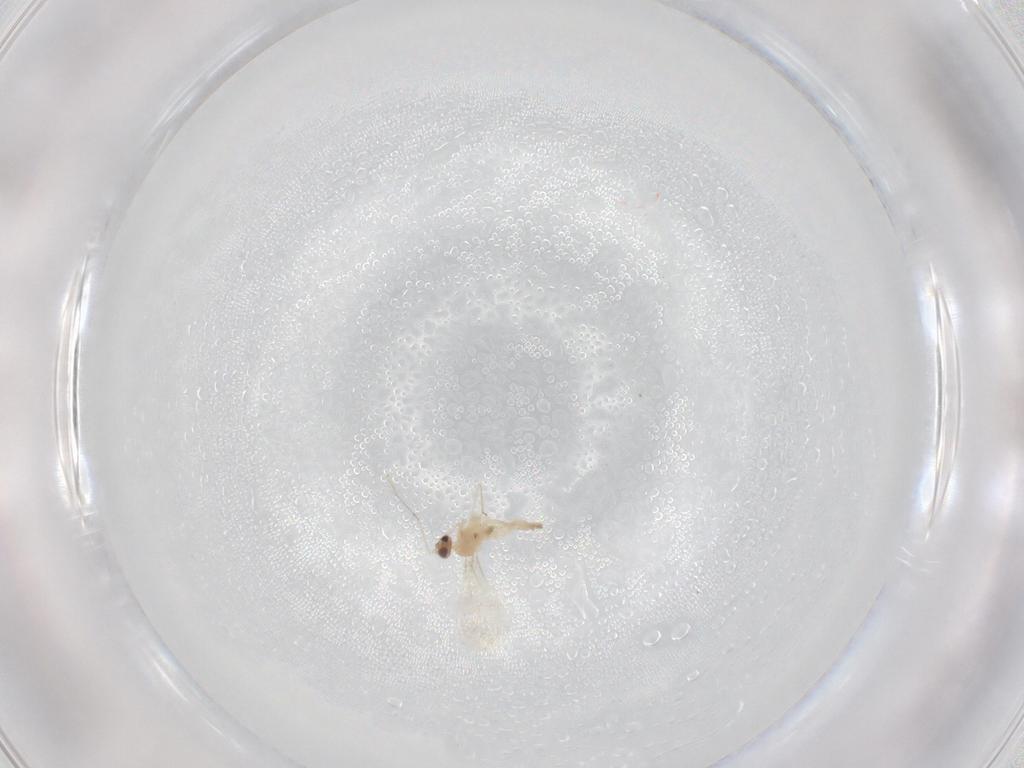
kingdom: Animalia
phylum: Arthropoda
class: Insecta
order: Diptera
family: Cecidomyiidae
